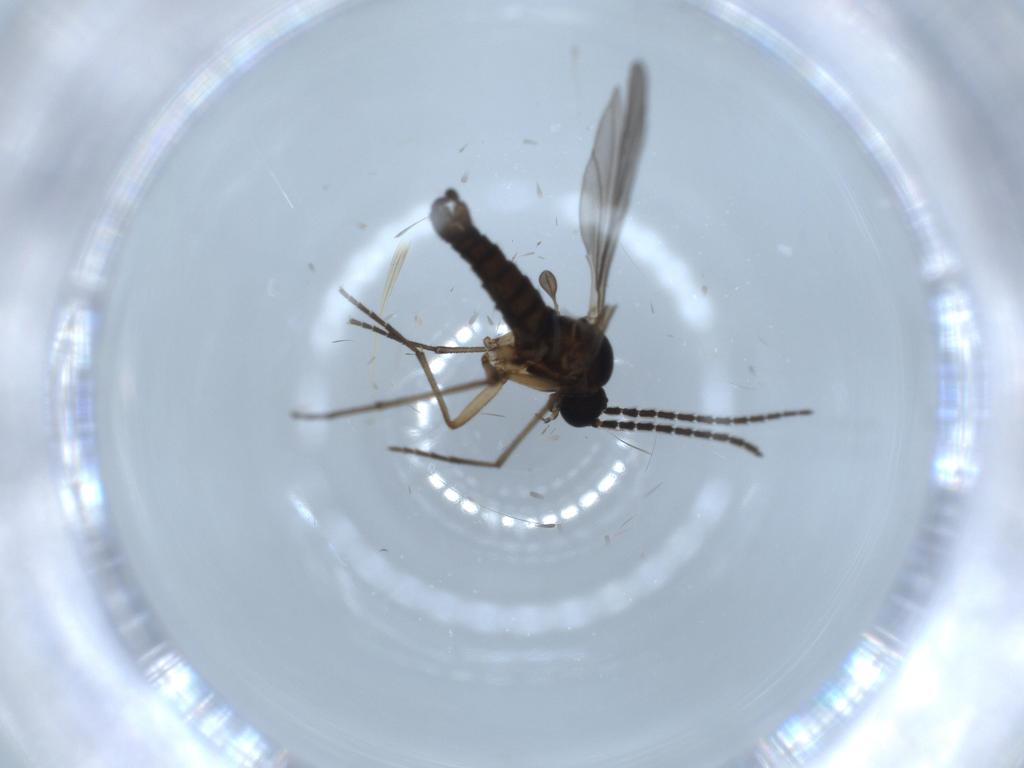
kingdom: Animalia
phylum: Arthropoda
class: Insecta
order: Diptera
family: Sciaridae
